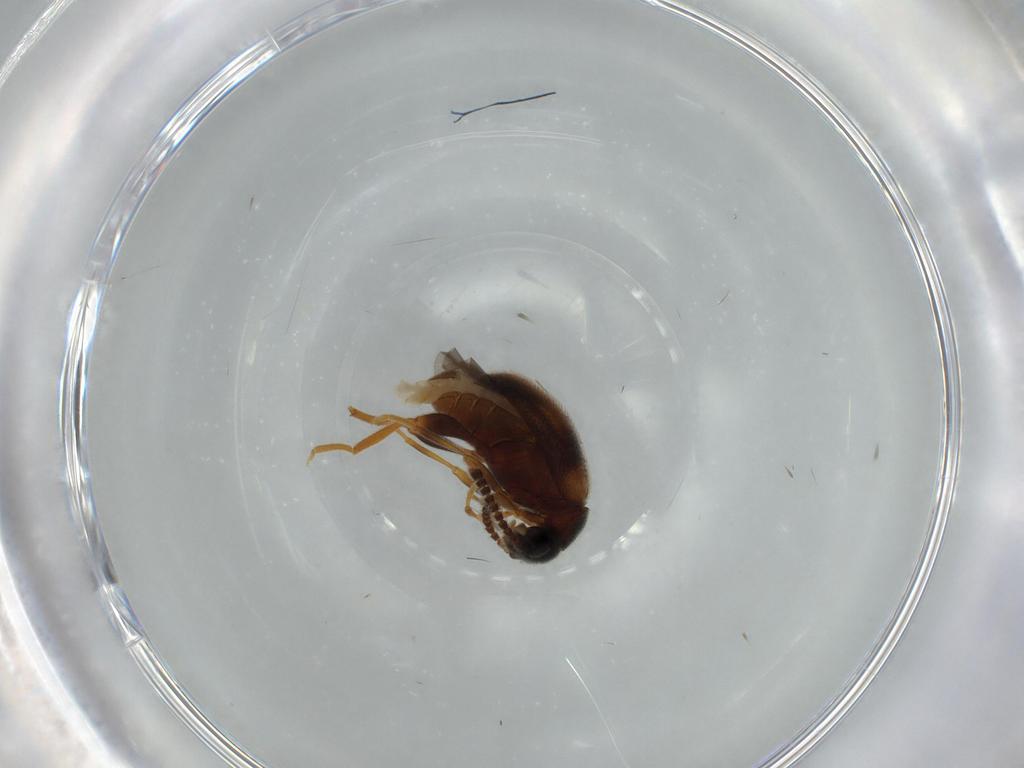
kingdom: Animalia
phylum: Arthropoda
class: Insecta
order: Coleoptera
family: Aderidae
